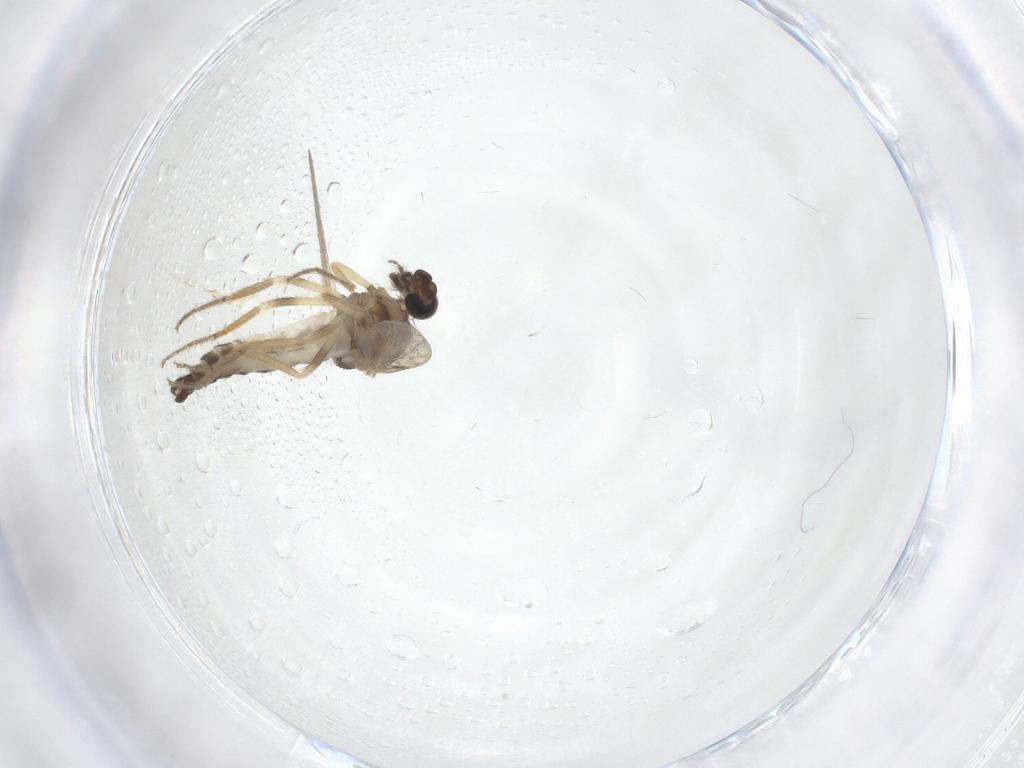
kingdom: Animalia
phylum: Arthropoda
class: Insecta
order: Diptera
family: Ceratopogonidae
